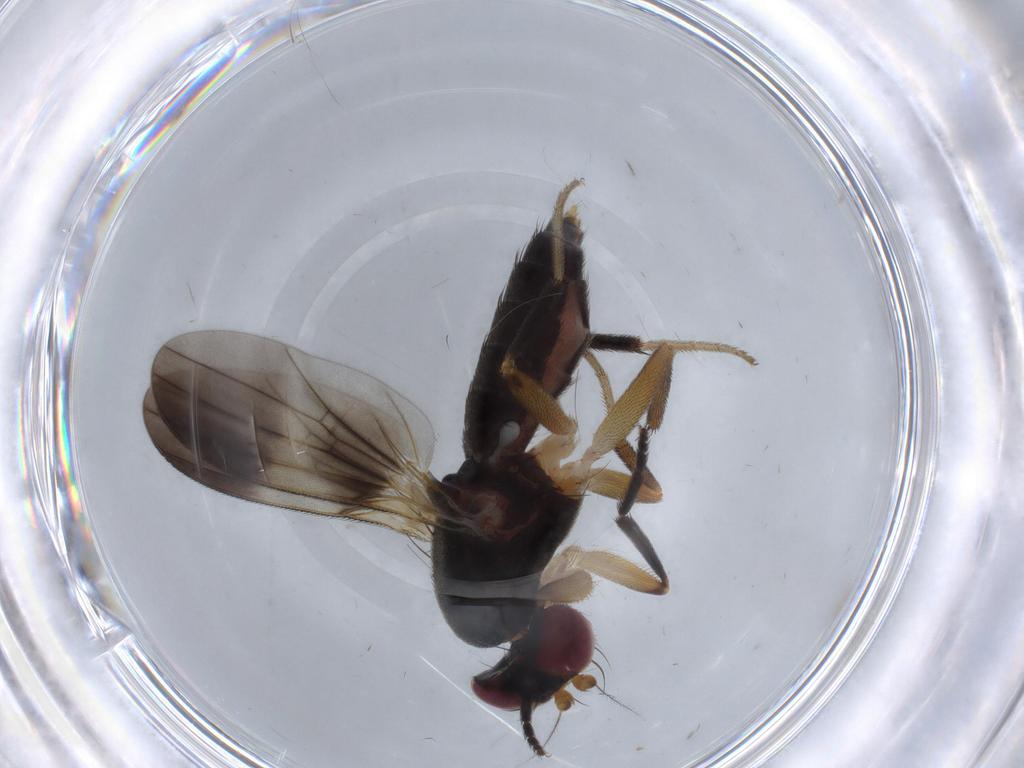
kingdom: Animalia
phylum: Arthropoda
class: Insecta
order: Diptera
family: Clusiidae
